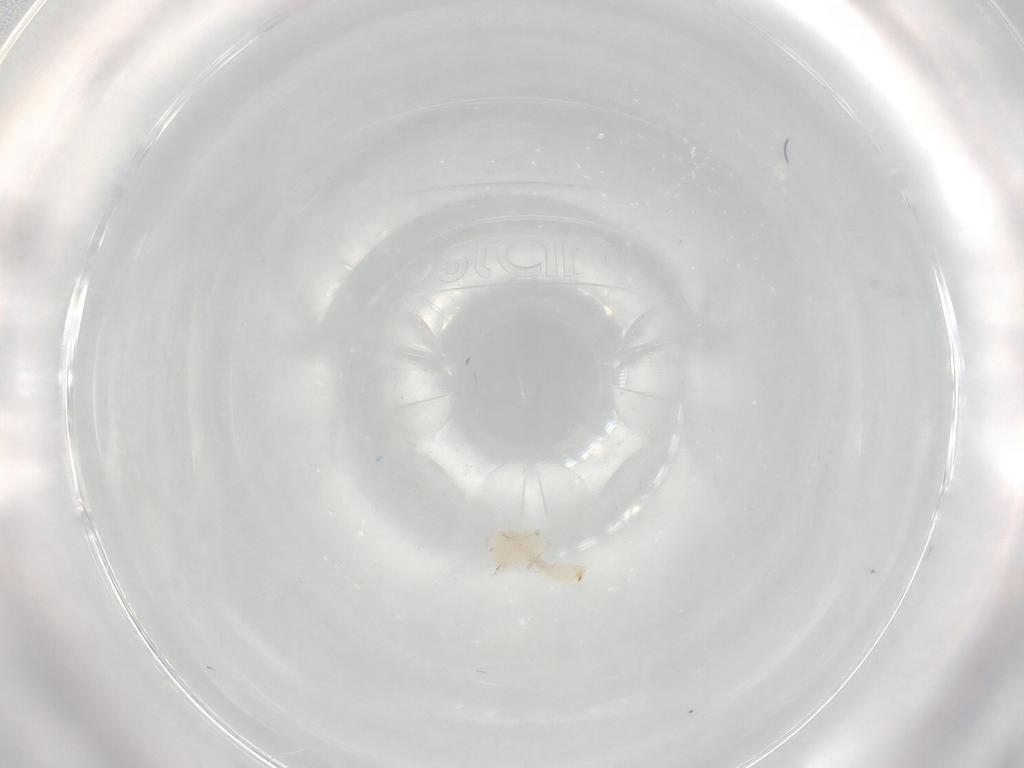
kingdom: Animalia
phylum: Arthropoda
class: Insecta
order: Diptera
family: Cecidomyiidae
